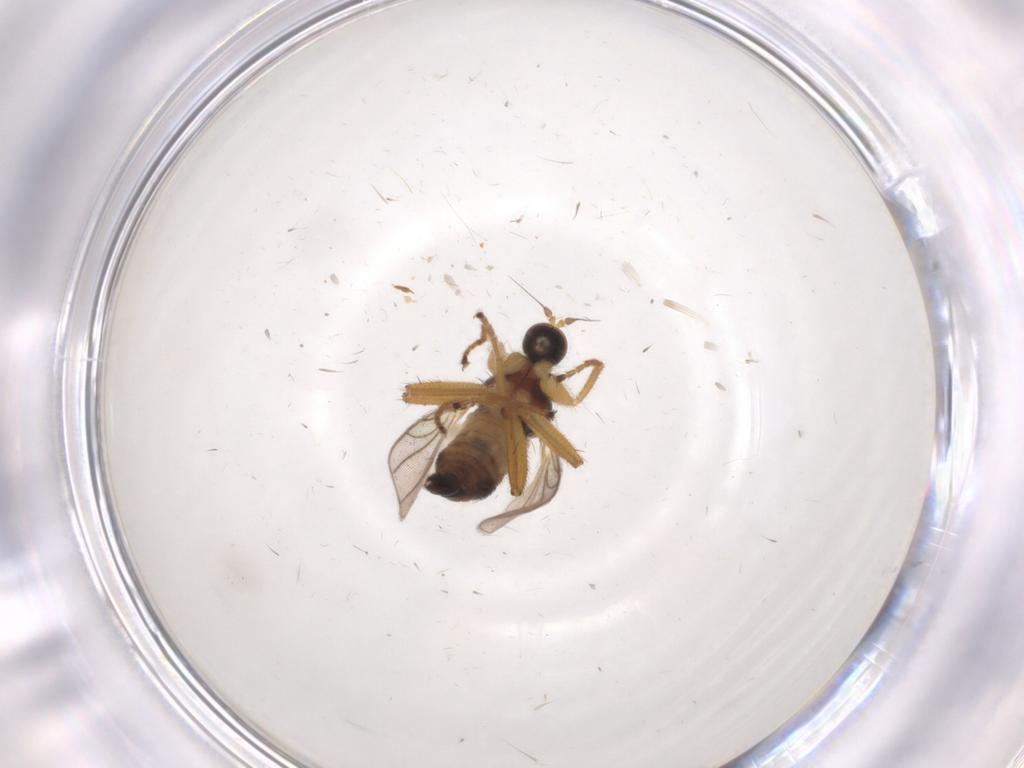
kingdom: Animalia
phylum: Arthropoda
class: Insecta
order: Diptera
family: Hybotidae
